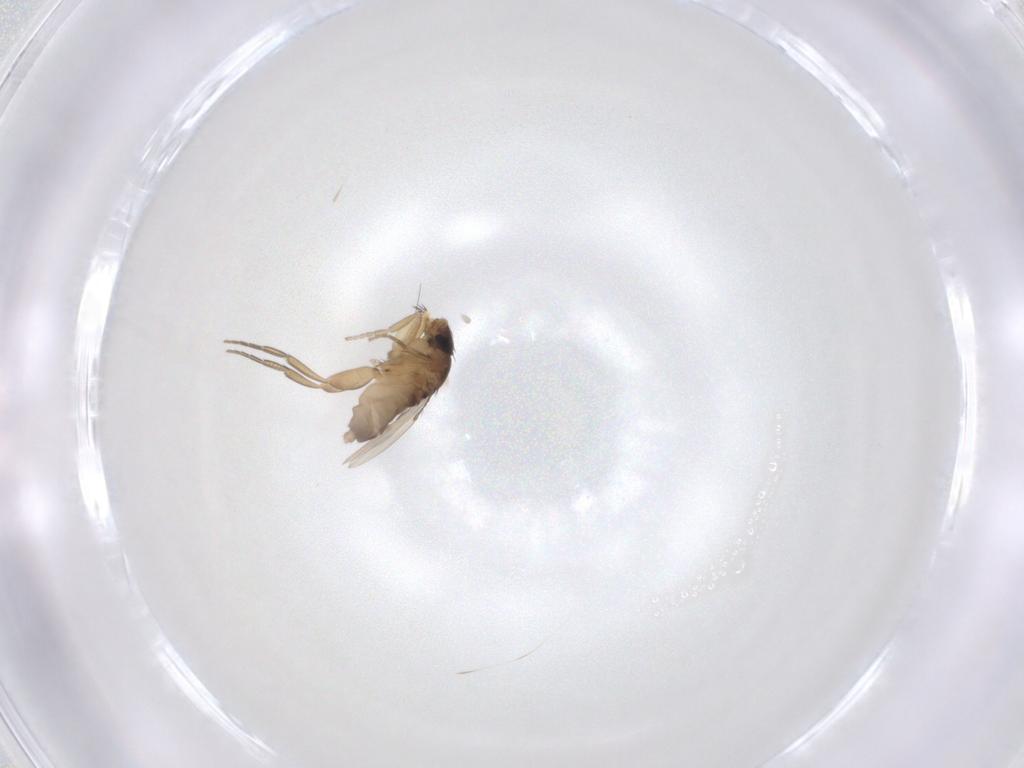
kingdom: Animalia
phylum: Arthropoda
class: Insecta
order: Diptera
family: Phoridae
